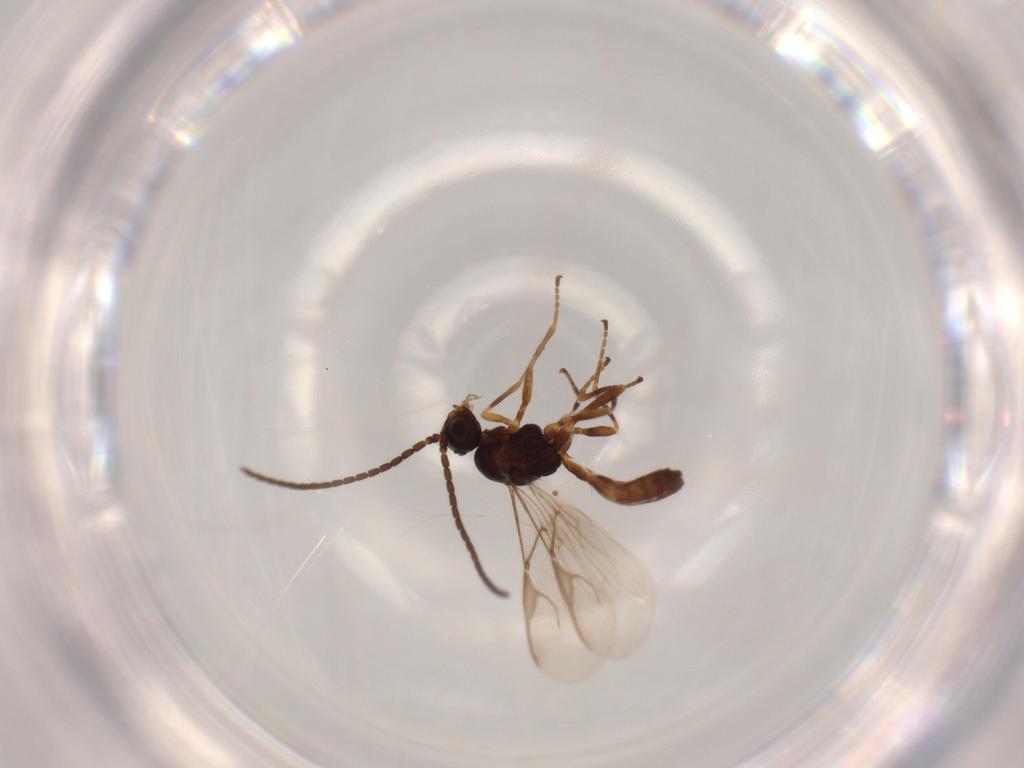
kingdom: Animalia
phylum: Arthropoda
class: Insecta
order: Hymenoptera
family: Braconidae
